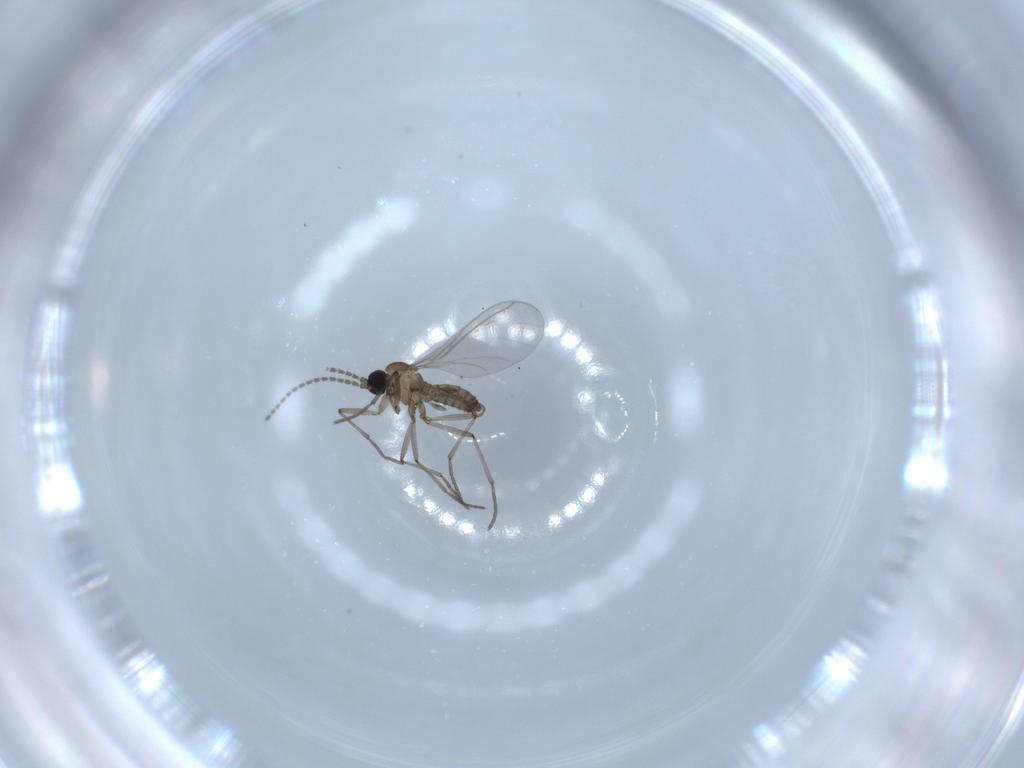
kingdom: Animalia
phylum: Arthropoda
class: Insecta
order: Diptera
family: Sciaridae
